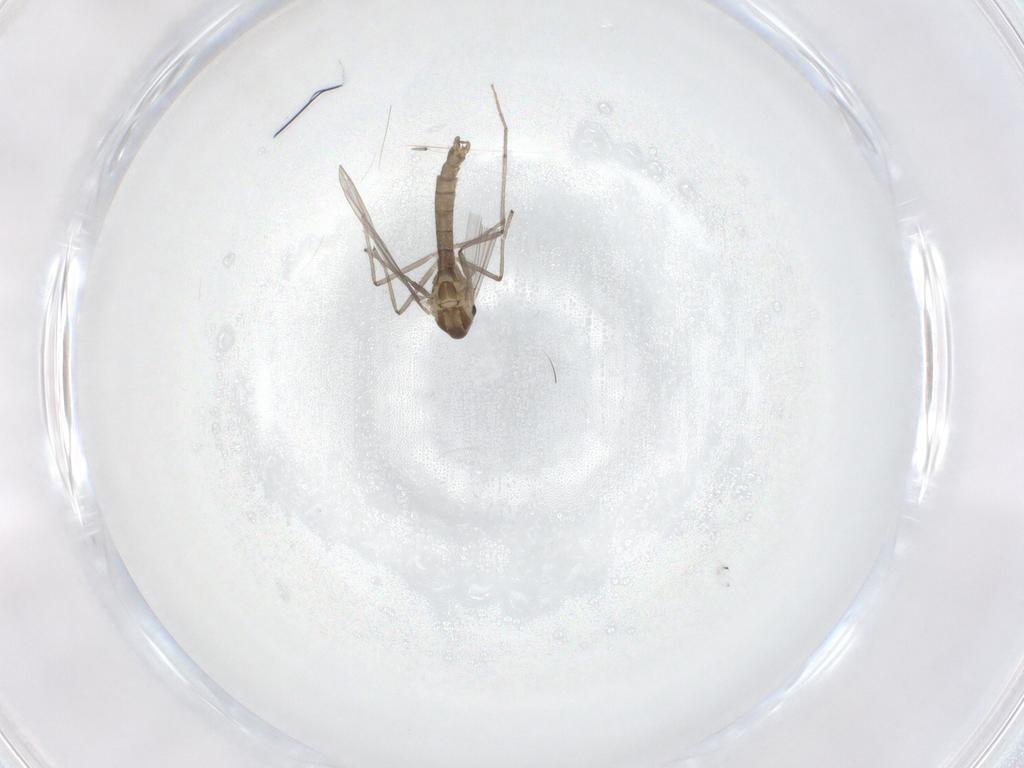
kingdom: Animalia
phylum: Arthropoda
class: Insecta
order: Diptera
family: Chironomidae
